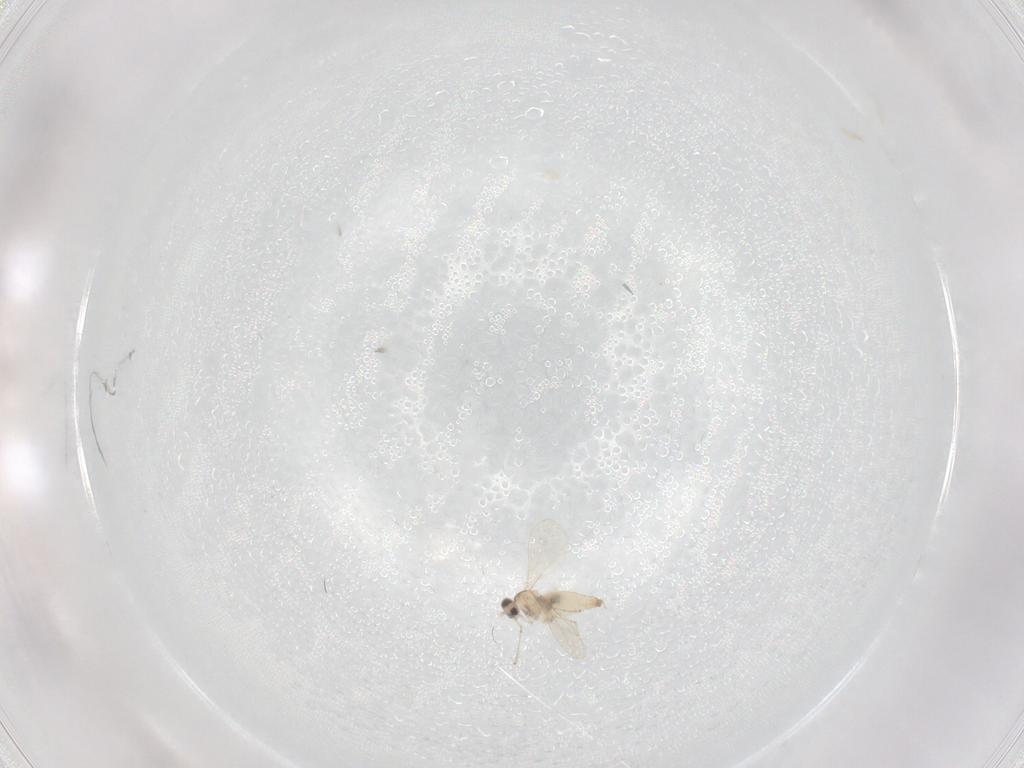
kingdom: Animalia
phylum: Arthropoda
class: Insecta
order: Diptera
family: Cecidomyiidae
